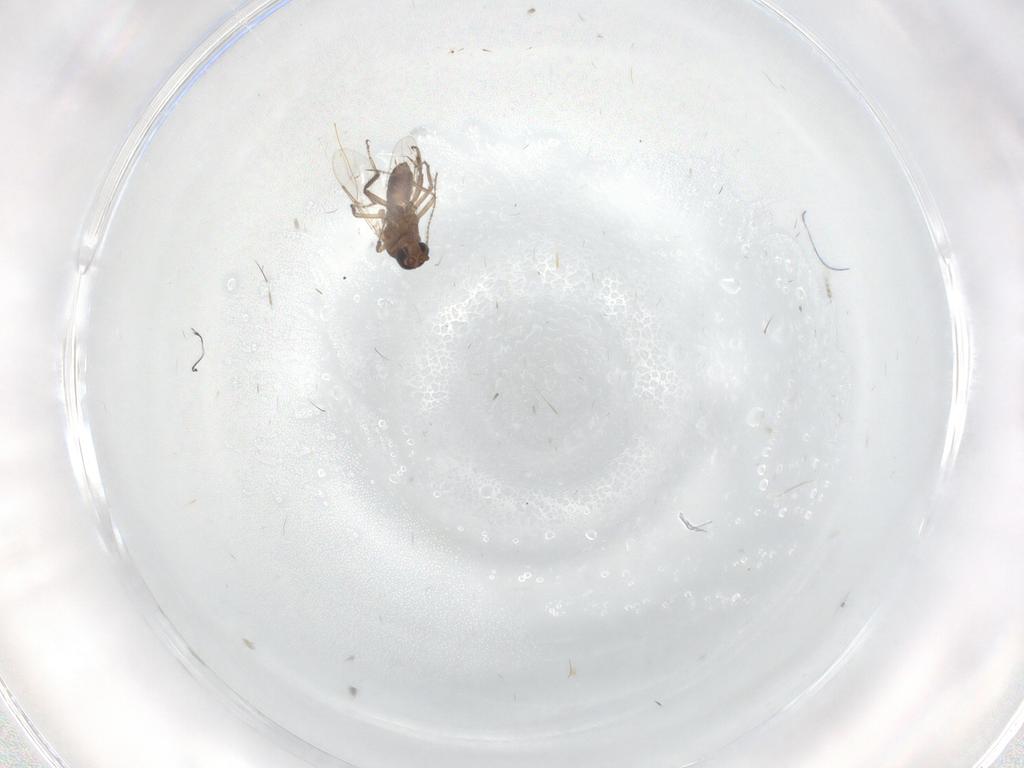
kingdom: Animalia
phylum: Arthropoda
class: Insecta
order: Diptera
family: Ceratopogonidae
